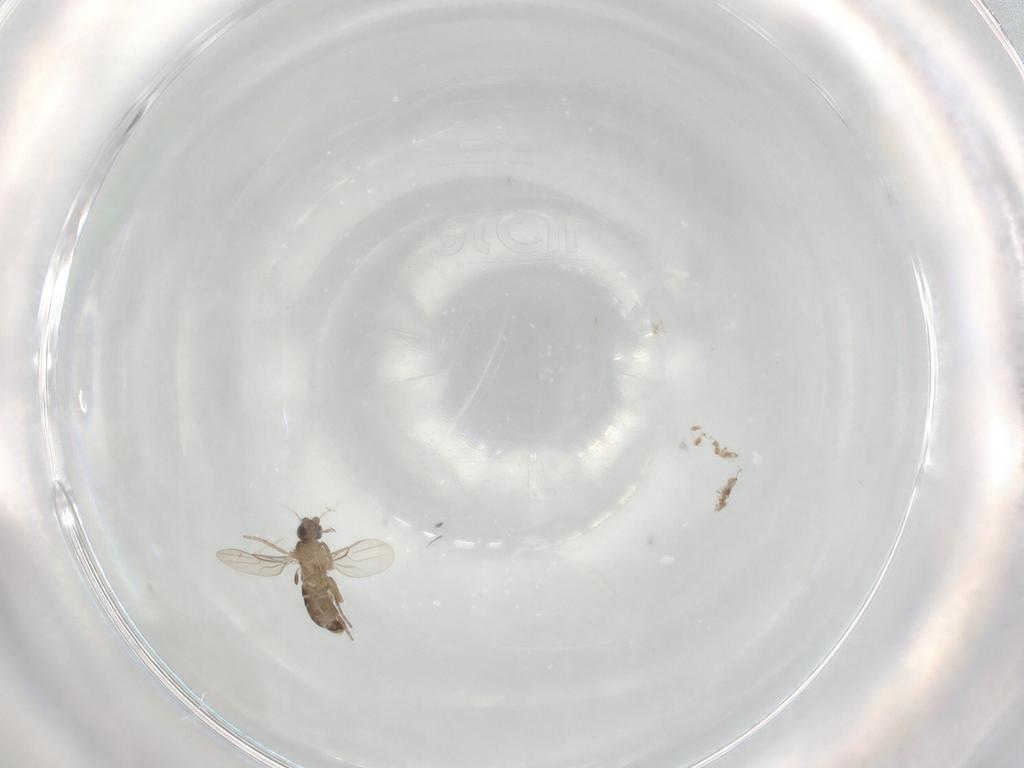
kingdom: Animalia
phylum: Arthropoda
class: Insecta
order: Diptera
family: Phoridae
